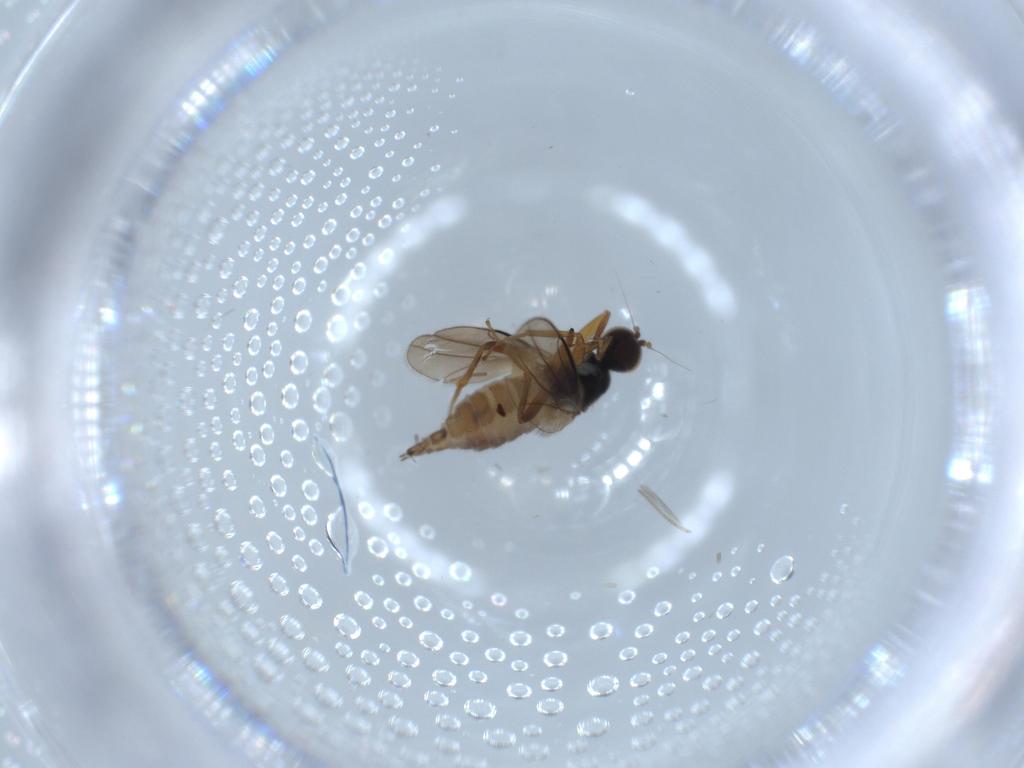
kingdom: Animalia
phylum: Arthropoda
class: Insecta
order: Diptera
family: Hybotidae
